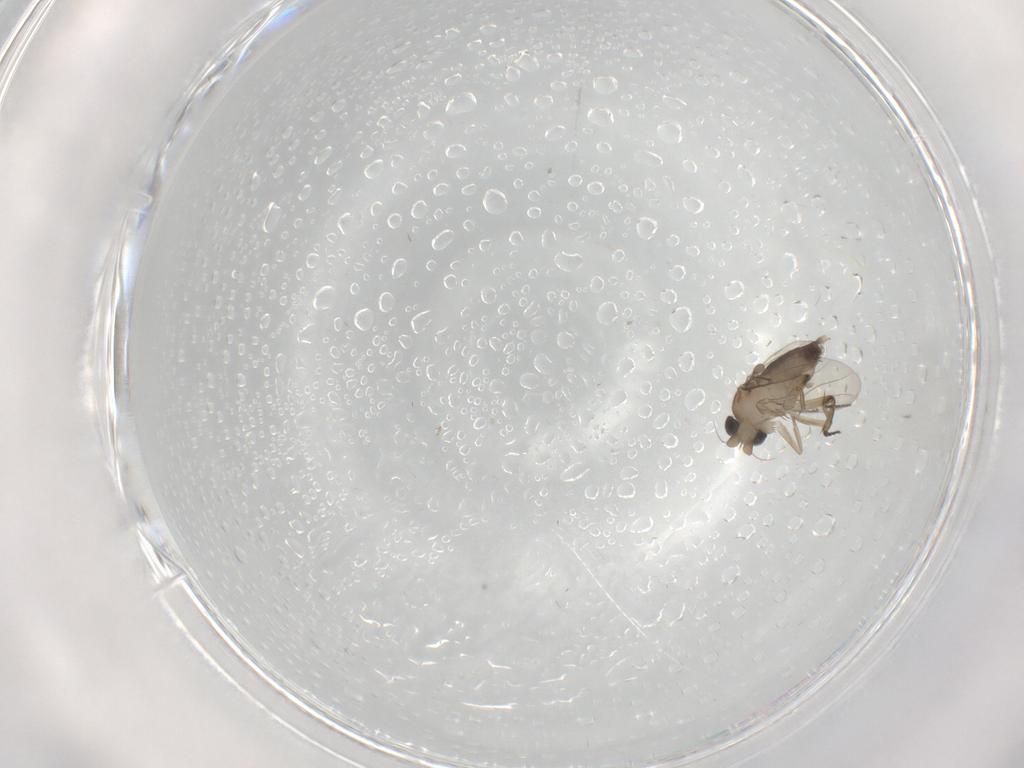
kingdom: Animalia
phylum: Arthropoda
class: Insecta
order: Diptera
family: Phoridae
